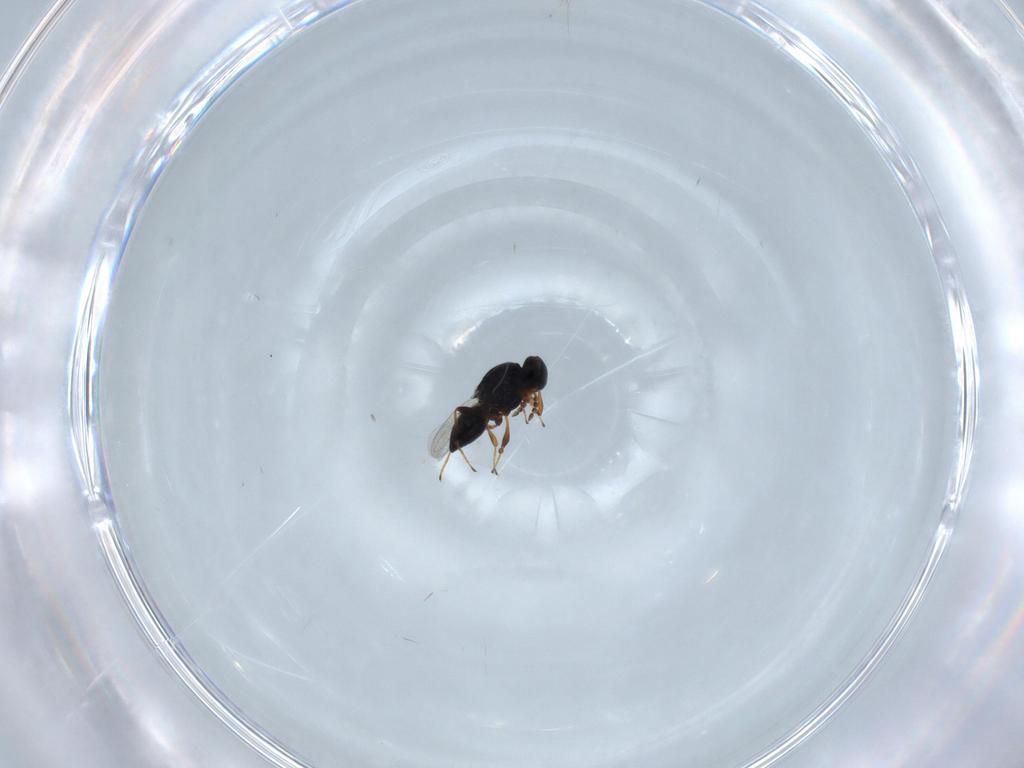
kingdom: Animalia
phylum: Arthropoda
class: Insecta
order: Hymenoptera
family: Platygastridae
